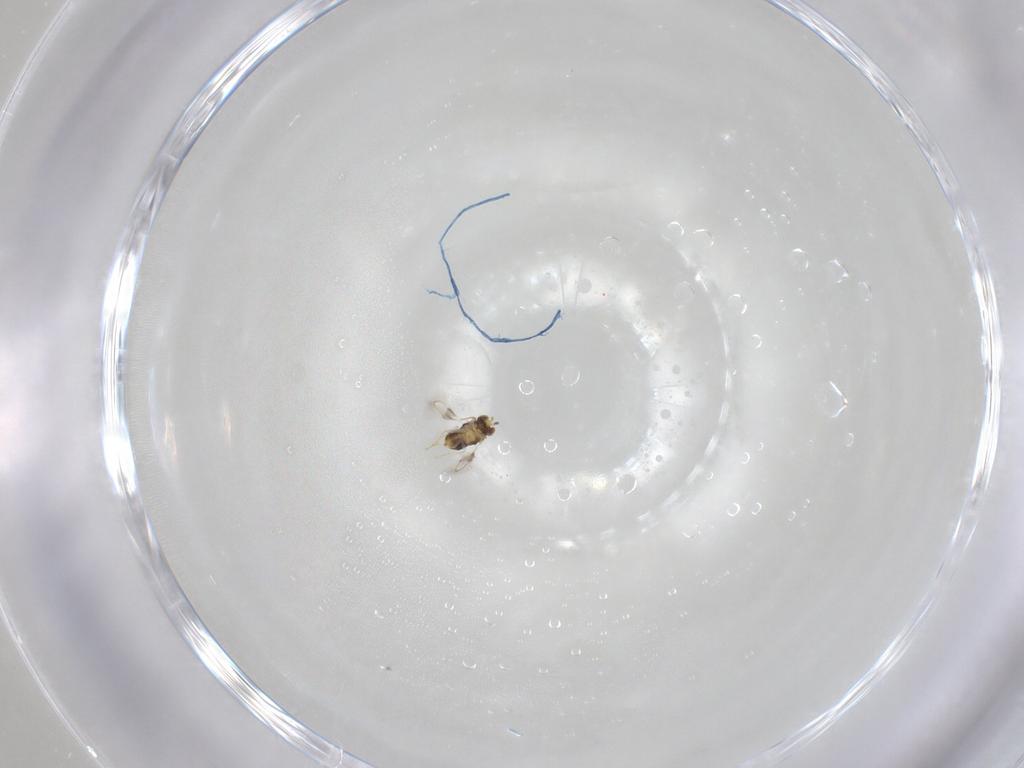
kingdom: Animalia
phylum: Arthropoda
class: Insecta
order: Hymenoptera
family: Aphelinidae
